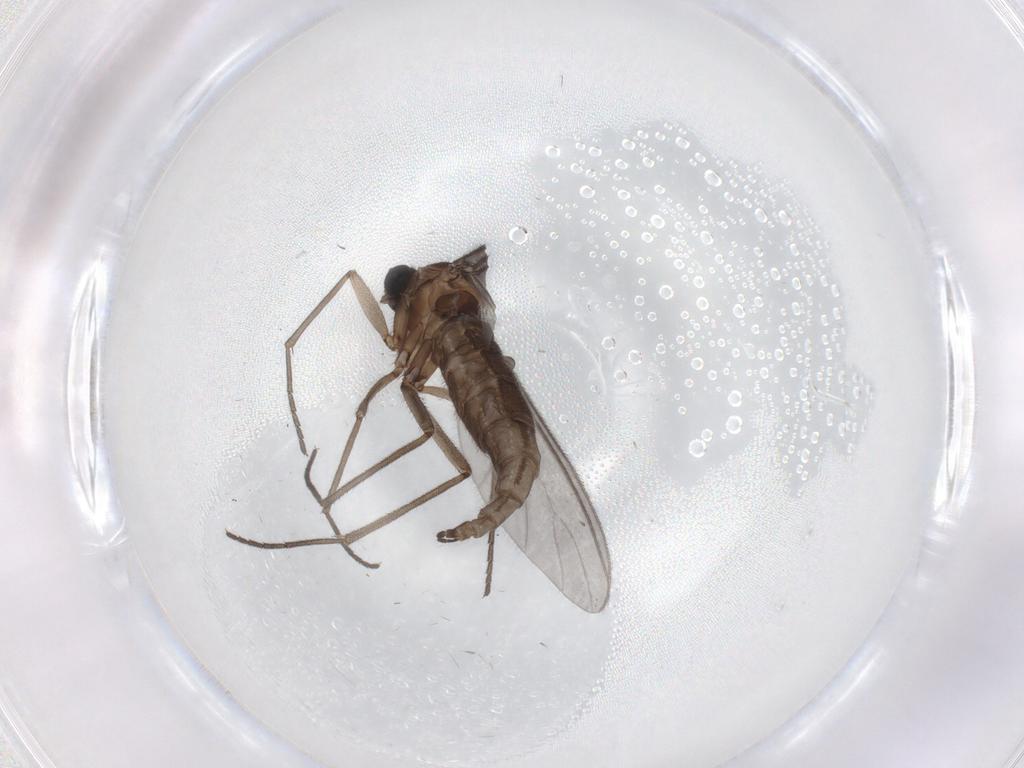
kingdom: Animalia
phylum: Arthropoda
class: Insecta
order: Diptera
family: Sciaridae
